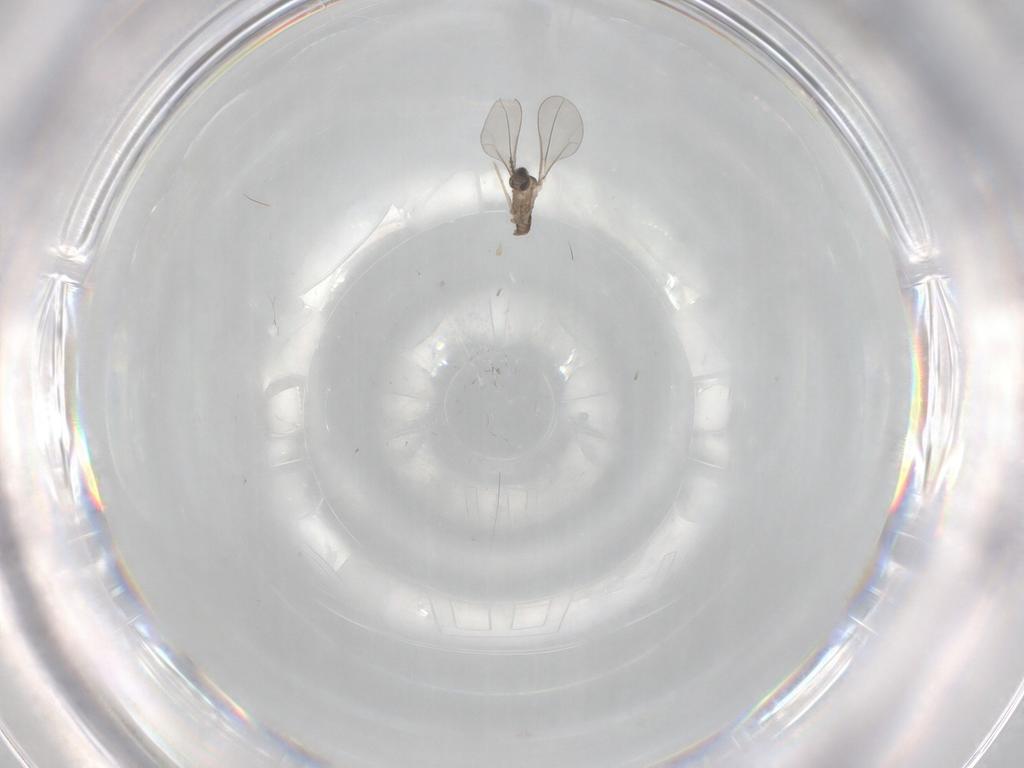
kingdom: Animalia
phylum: Arthropoda
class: Insecta
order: Diptera
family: Cecidomyiidae
